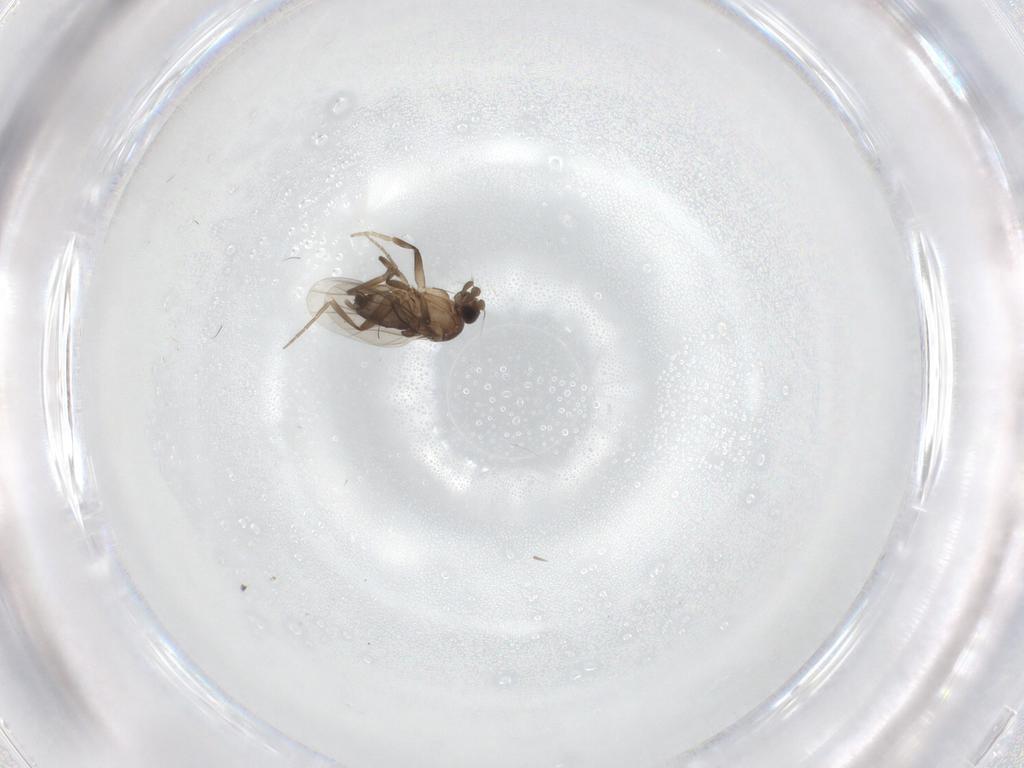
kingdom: Animalia
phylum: Arthropoda
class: Insecta
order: Diptera
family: Phoridae
